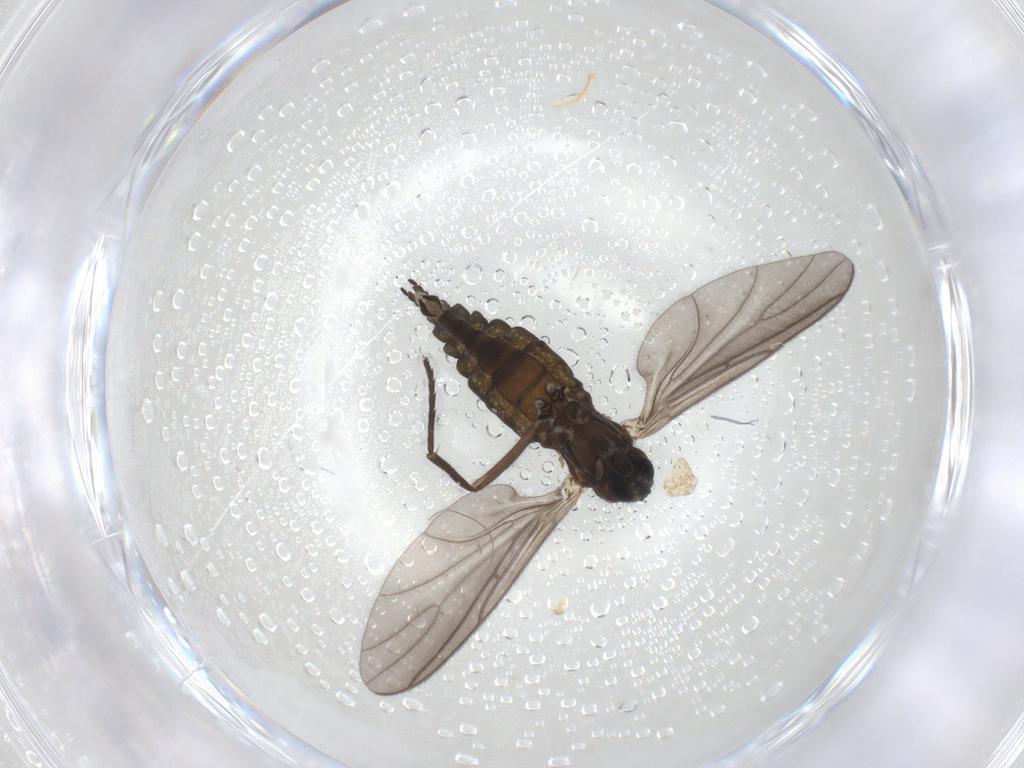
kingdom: Animalia
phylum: Arthropoda
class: Insecta
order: Diptera
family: Sciaridae
